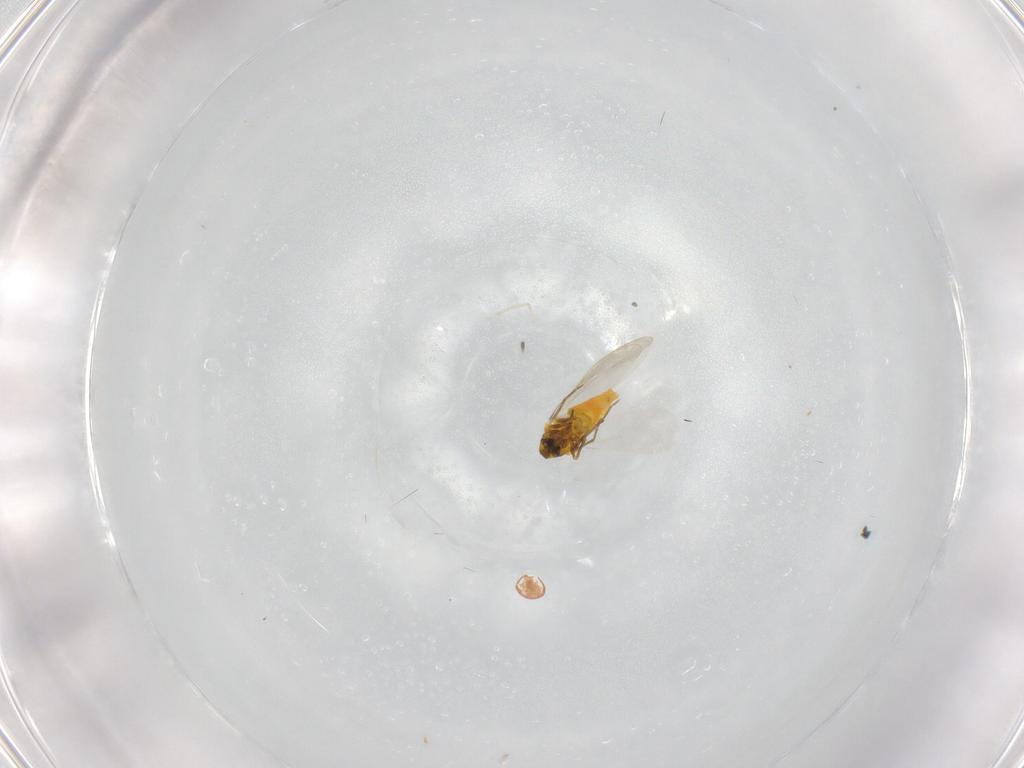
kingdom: Animalia
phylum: Arthropoda
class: Insecta
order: Hemiptera
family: Aleyrodidae
